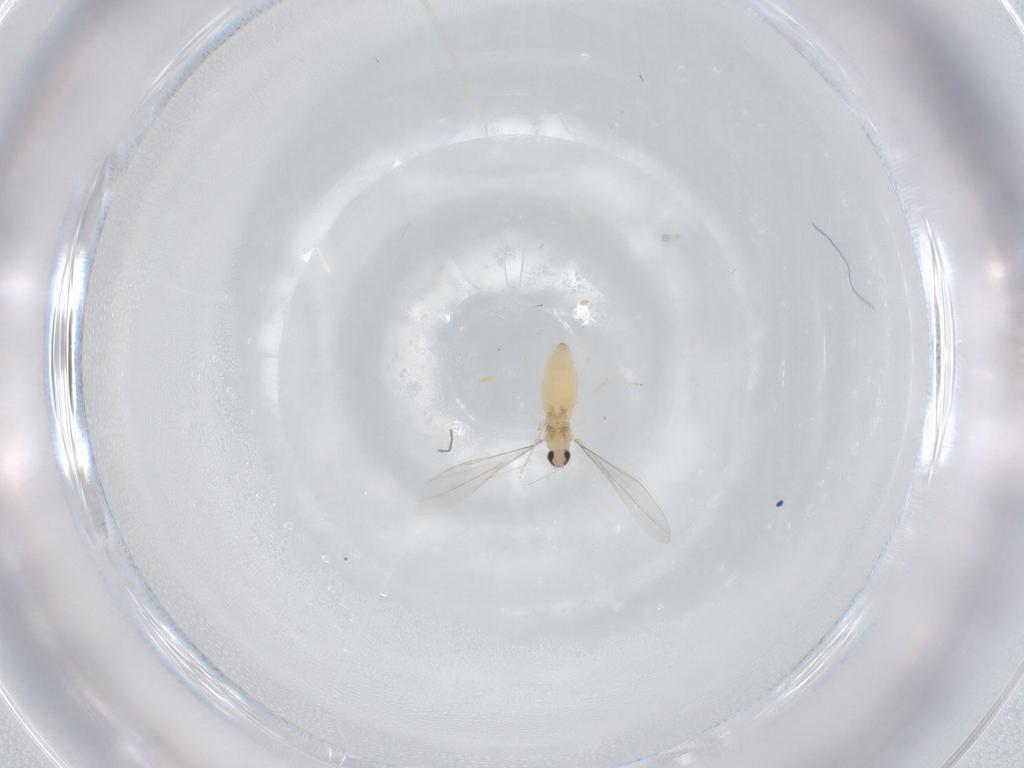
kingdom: Animalia
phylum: Arthropoda
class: Insecta
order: Diptera
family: Cecidomyiidae
